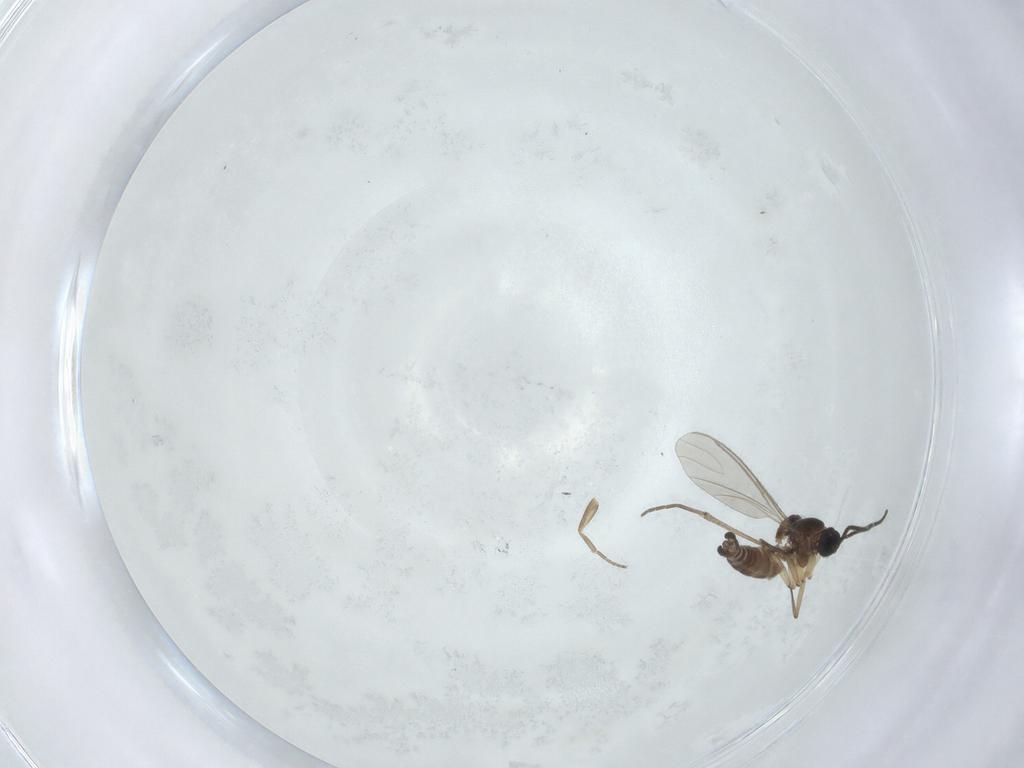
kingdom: Animalia
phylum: Arthropoda
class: Insecta
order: Diptera
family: Sciaridae
